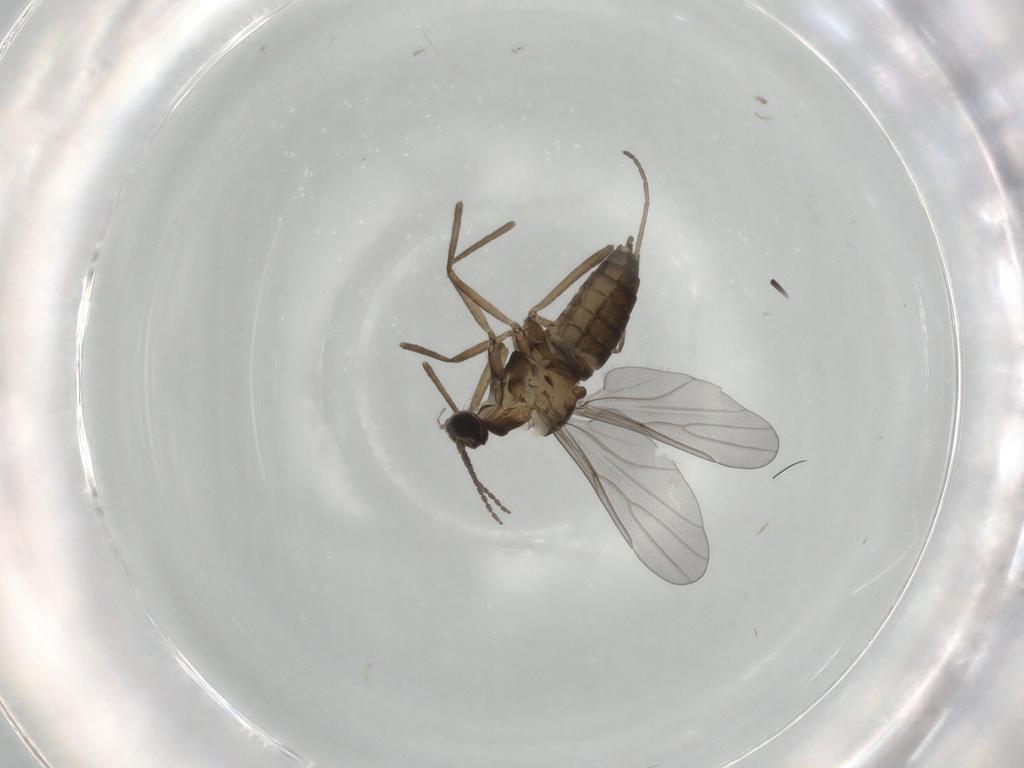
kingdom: Animalia
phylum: Arthropoda
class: Insecta
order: Diptera
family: Cecidomyiidae
